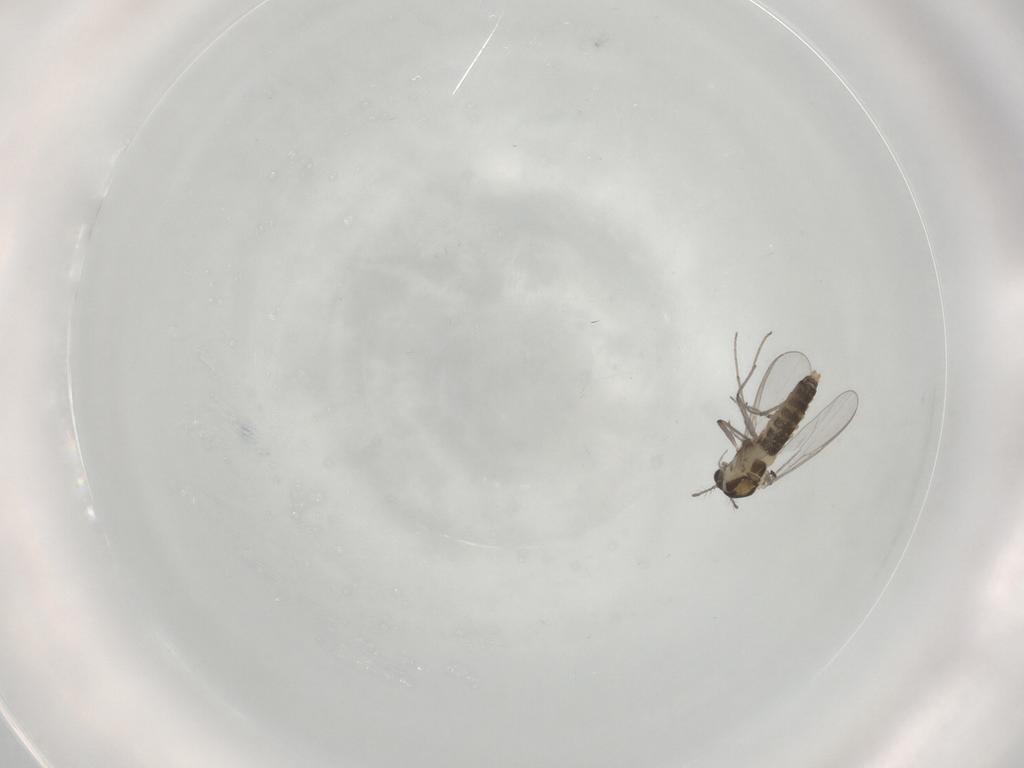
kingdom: Animalia
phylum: Arthropoda
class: Insecta
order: Diptera
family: Chironomidae
